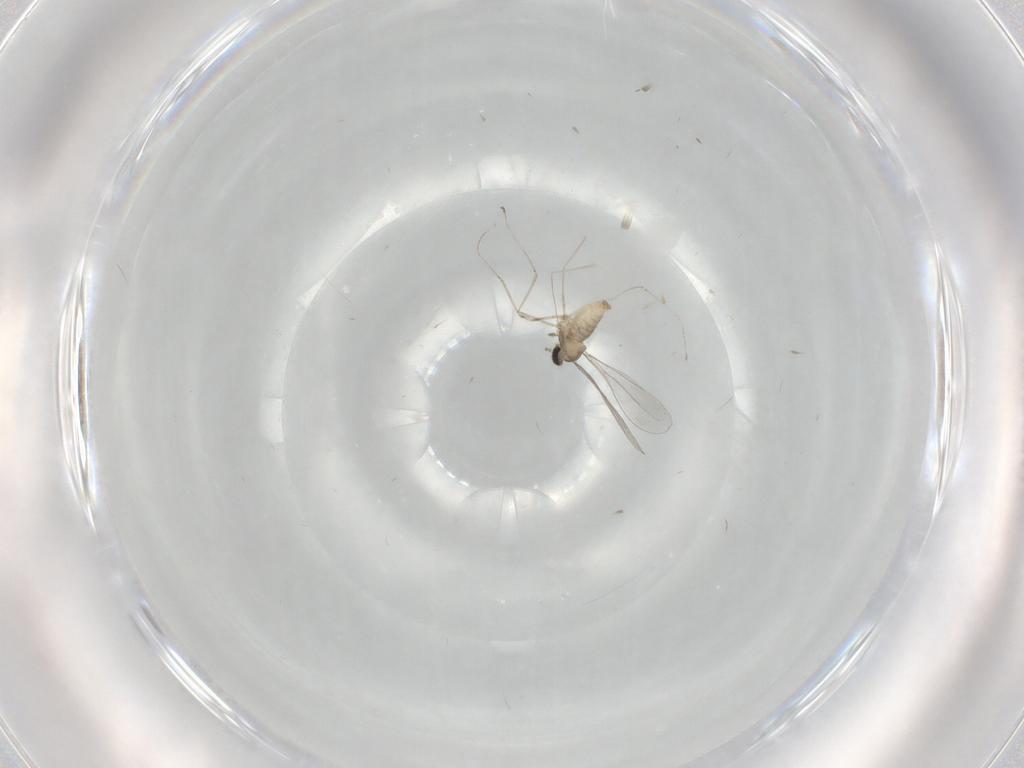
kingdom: Animalia
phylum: Arthropoda
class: Insecta
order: Diptera
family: Cecidomyiidae
